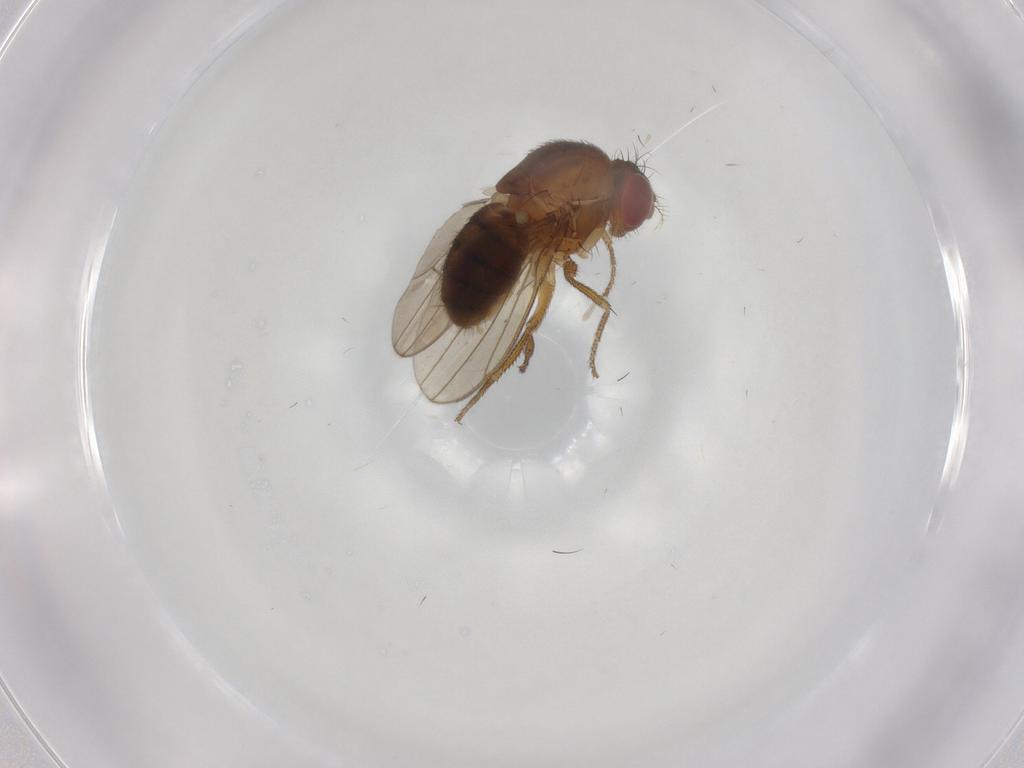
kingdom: Animalia
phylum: Arthropoda
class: Insecta
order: Diptera
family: Drosophilidae
